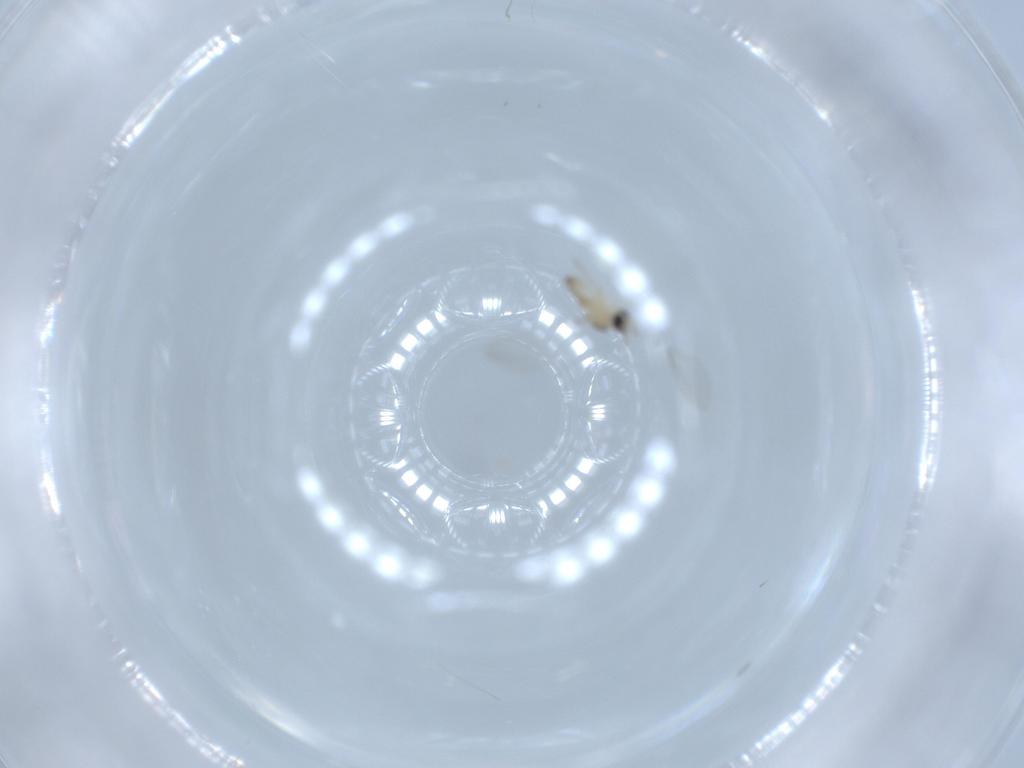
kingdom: Animalia
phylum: Arthropoda
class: Insecta
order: Diptera
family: Cecidomyiidae
